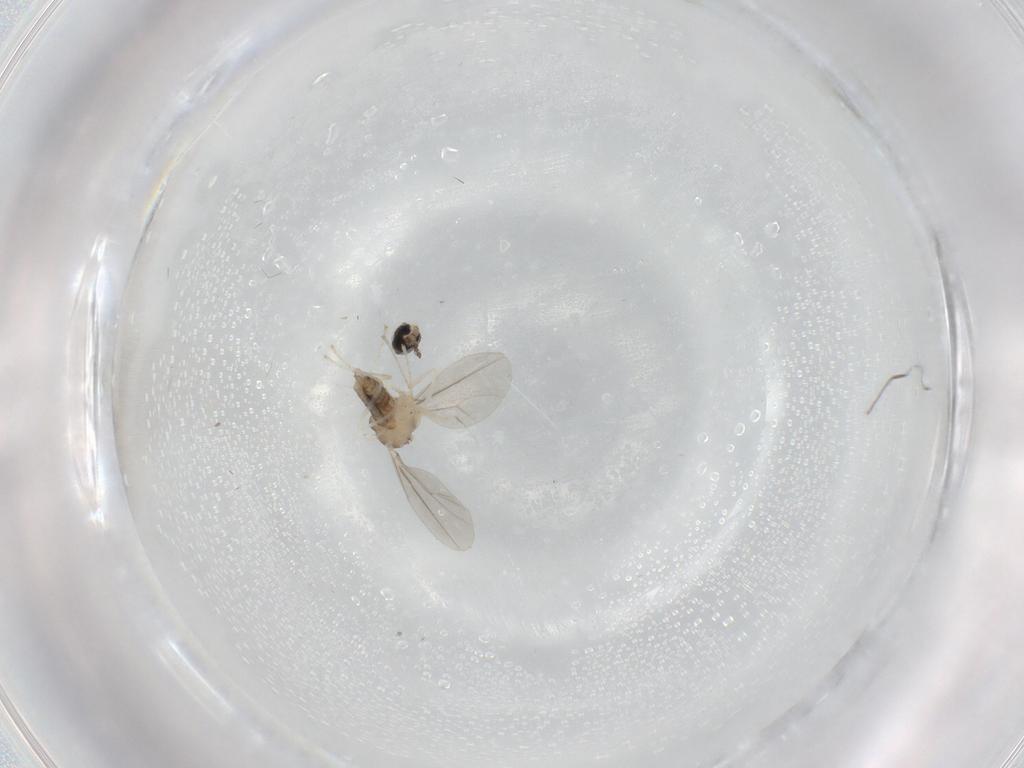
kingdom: Animalia
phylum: Arthropoda
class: Insecta
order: Diptera
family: Cecidomyiidae
